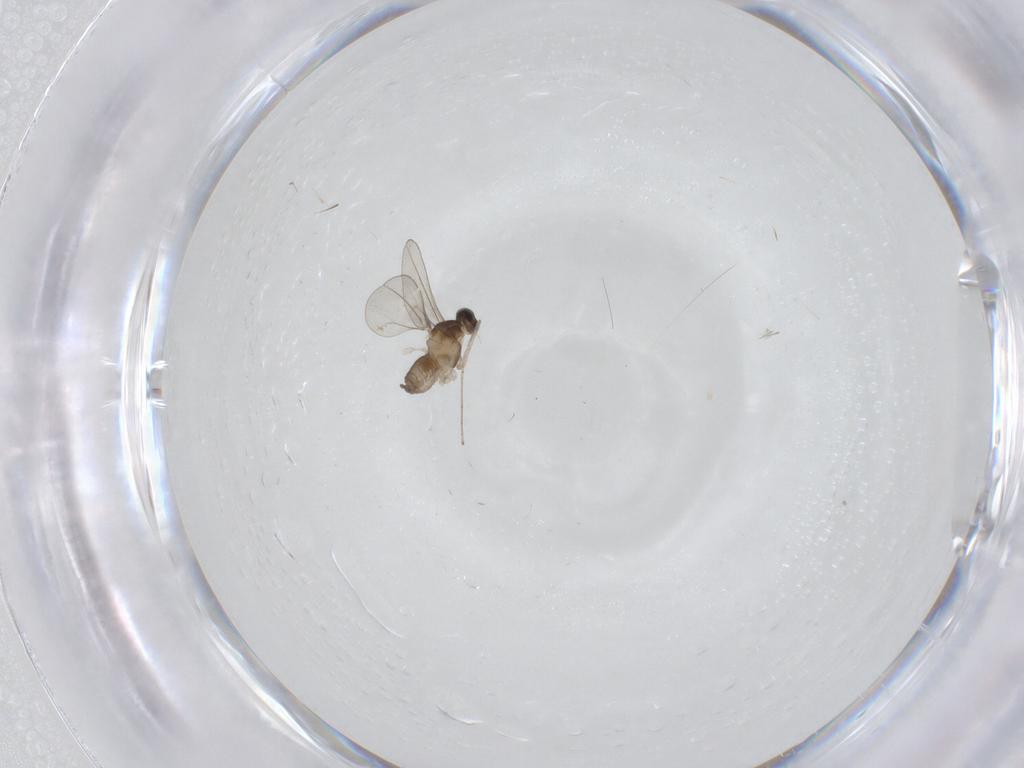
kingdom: Animalia
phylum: Arthropoda
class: Insecta
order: Diptera
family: Cecidomyiidae
